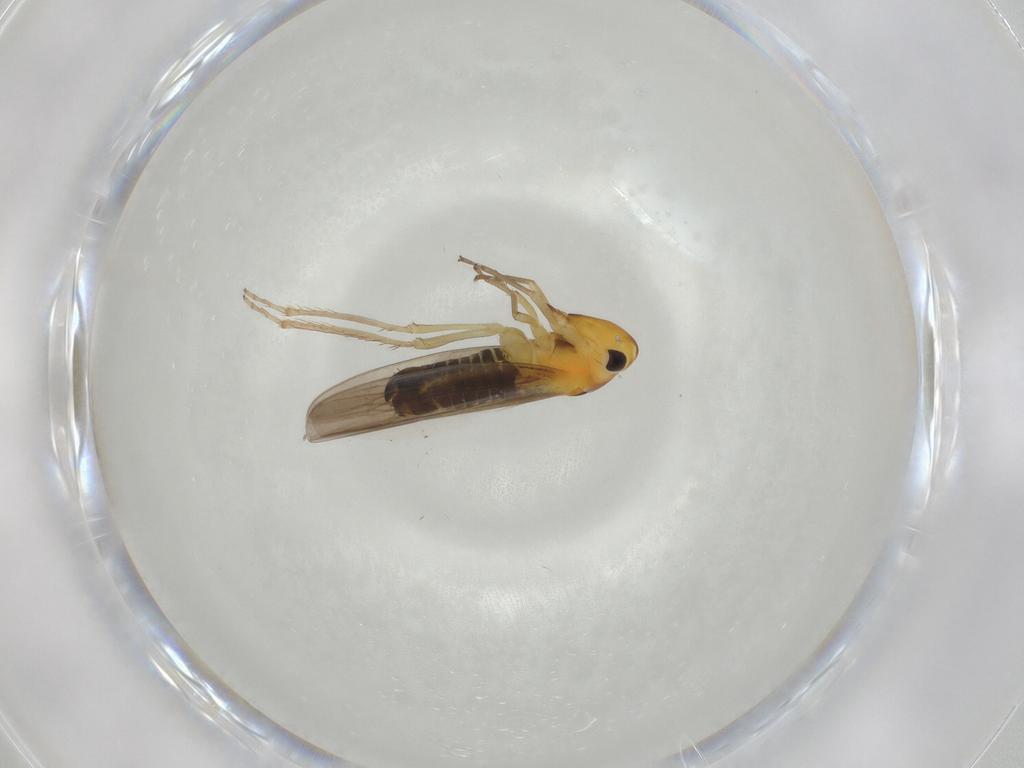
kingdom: Animalia
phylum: Arthropoda
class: Insecta
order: Hemiptera
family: Cicadellidae
